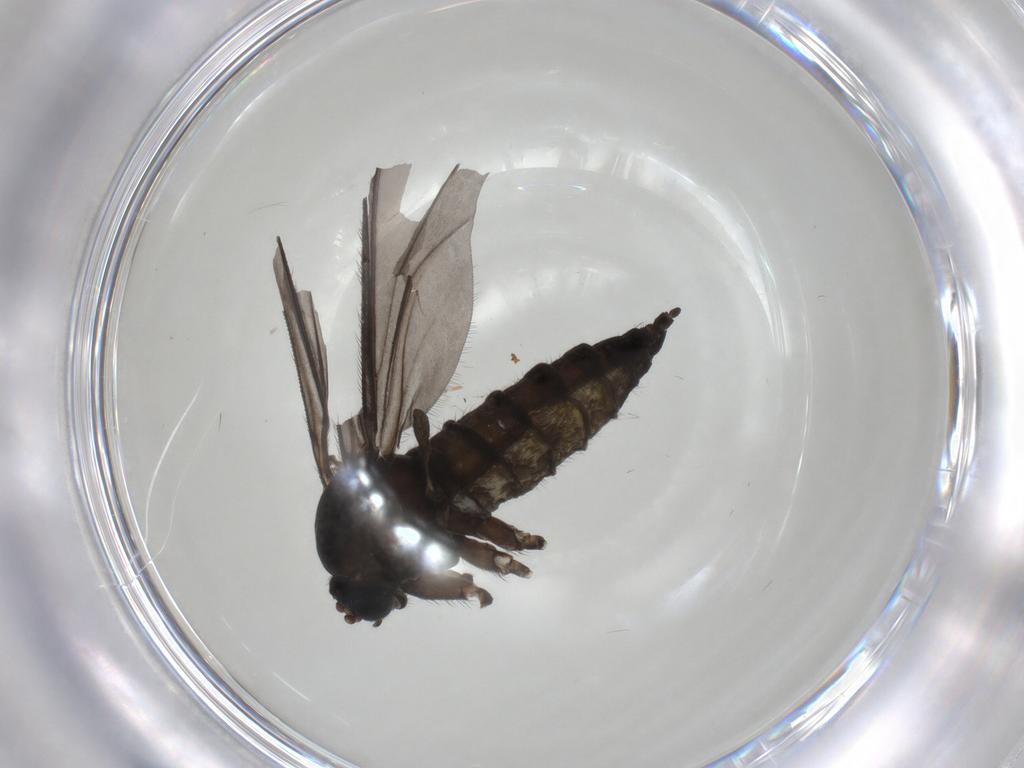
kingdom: Animalia
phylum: Arthropoda
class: Insecta
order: Diptera
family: Sciaridae
